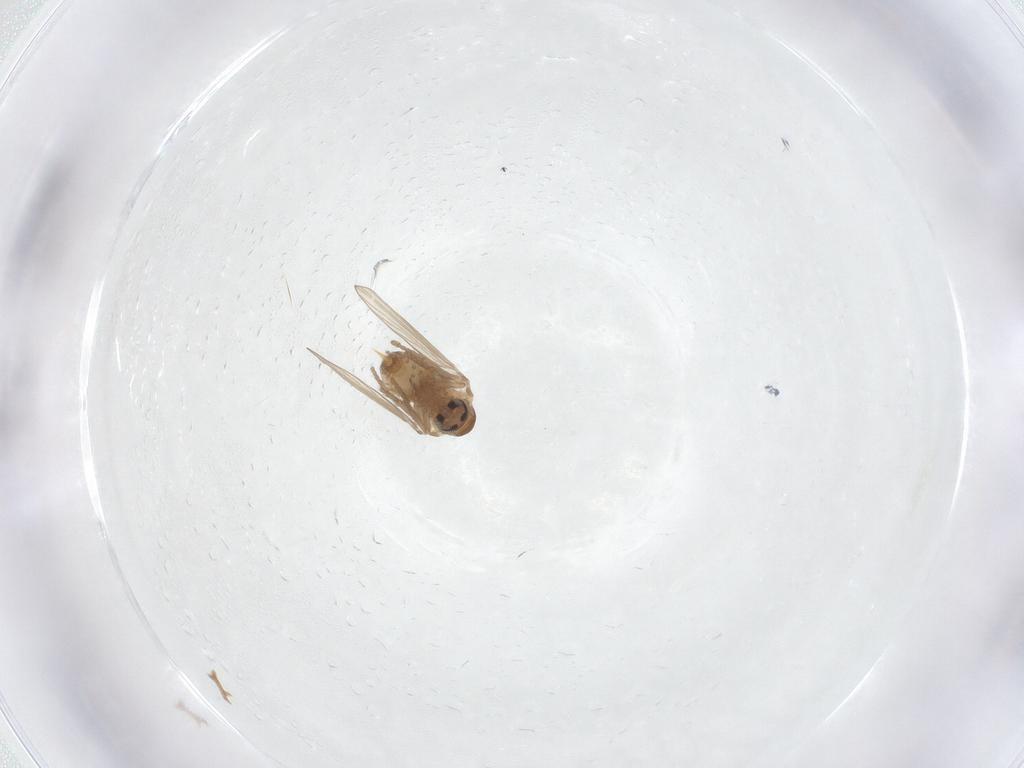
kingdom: Animalia
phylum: Arthropoda
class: Insecta
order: Diptera
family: Psychodidae
